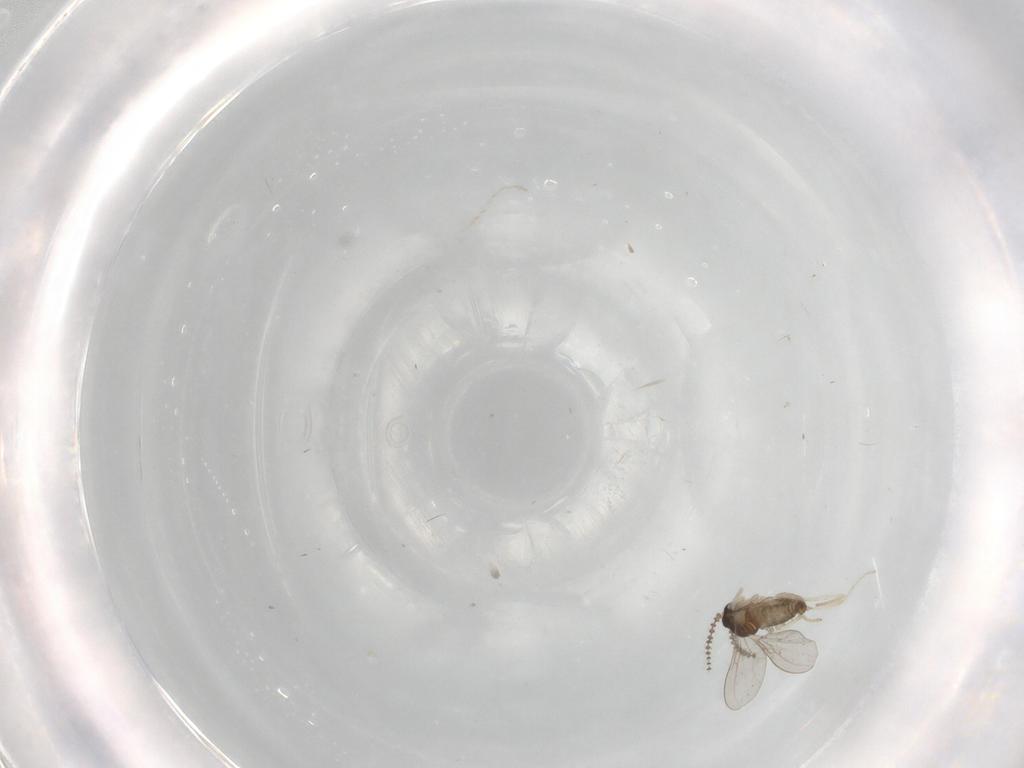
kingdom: Animalia
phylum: Arthropoda
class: Insecta
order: Diptera
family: Cecidomyiidae
